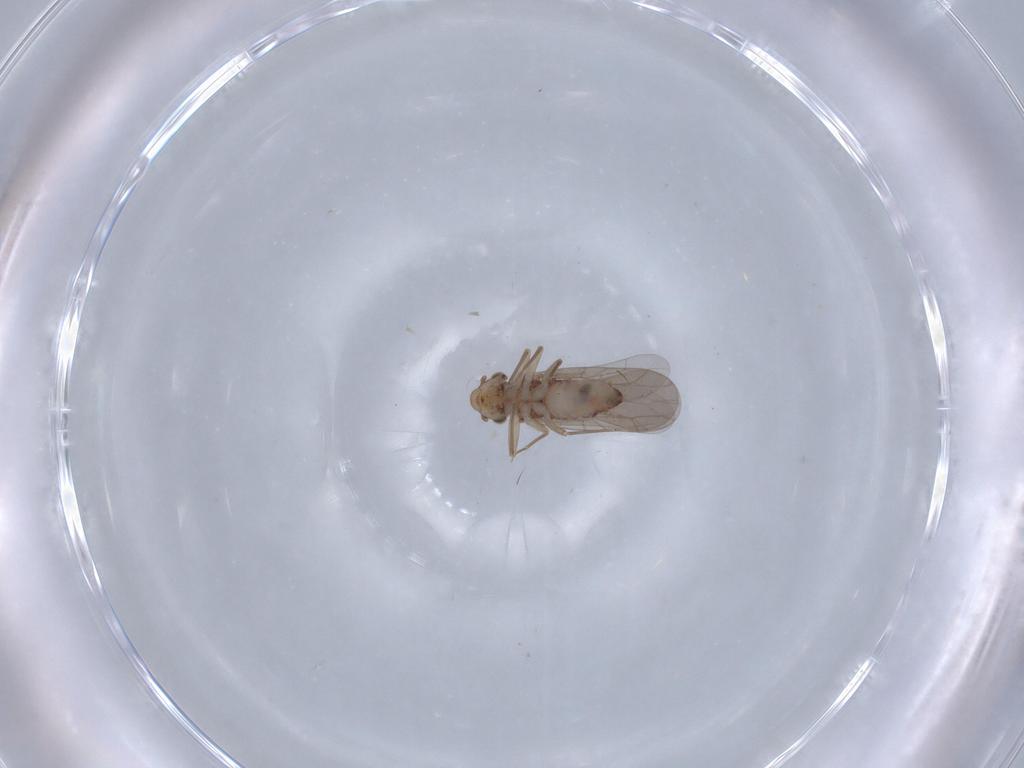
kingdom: Animalia
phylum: Arthropoda
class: Insecta
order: Psocodea
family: Lepidopsocidae
